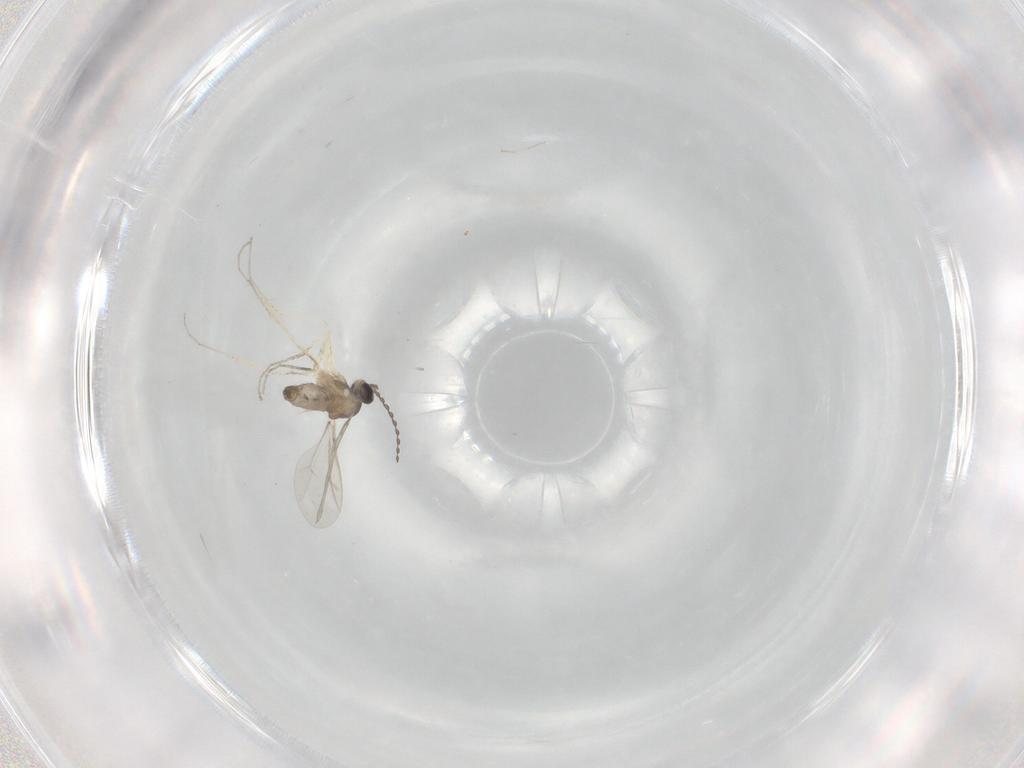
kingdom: Animalia
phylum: Arthropoda
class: Insecta
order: Diptera
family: Cecidomyiidae
